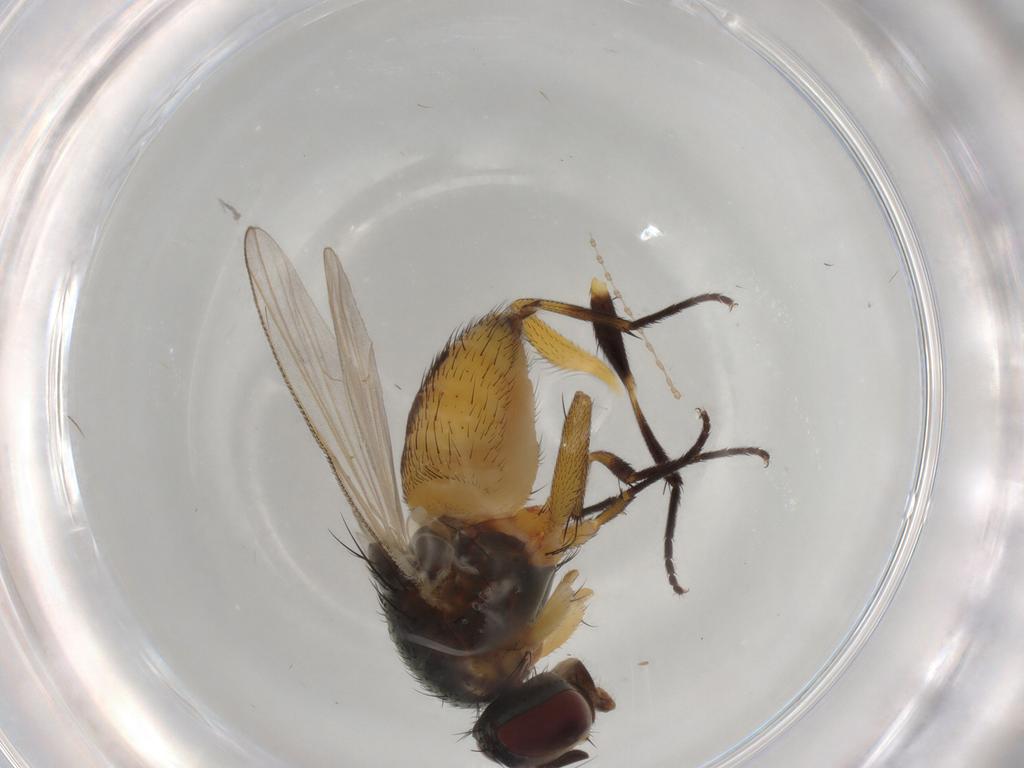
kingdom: Animalia
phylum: Arthropoda
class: Insecta
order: Diptera
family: Muscidae
